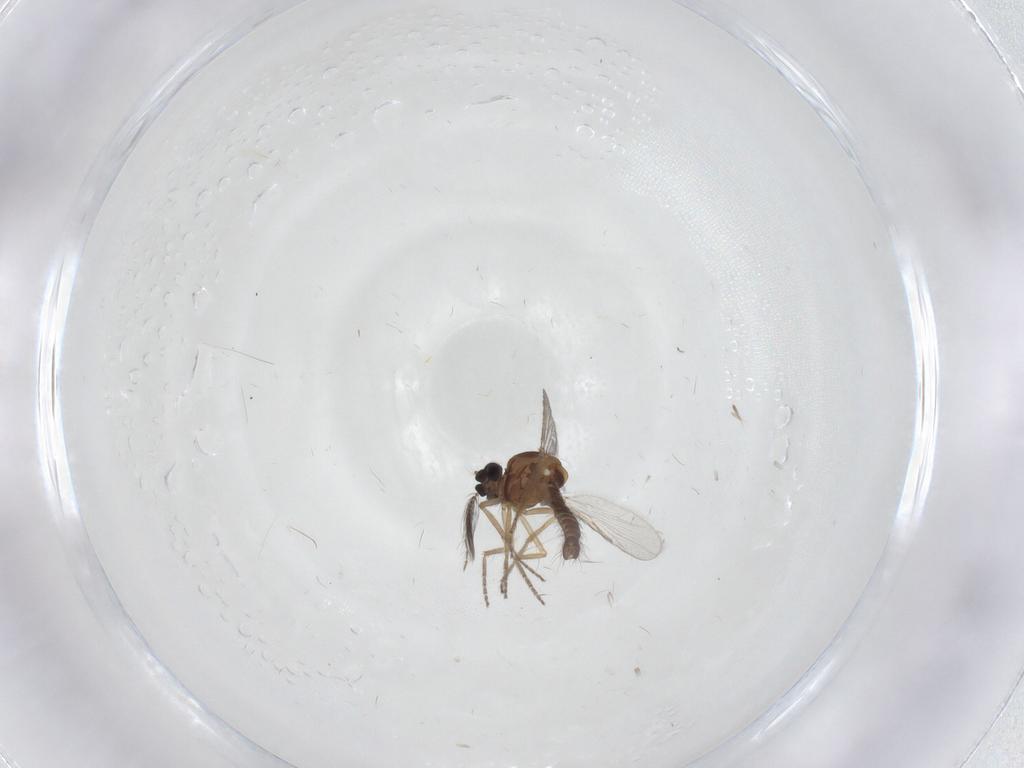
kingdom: Animalia
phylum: Arthropoda
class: Insecta
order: Diptera
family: Ceratopogonidae
